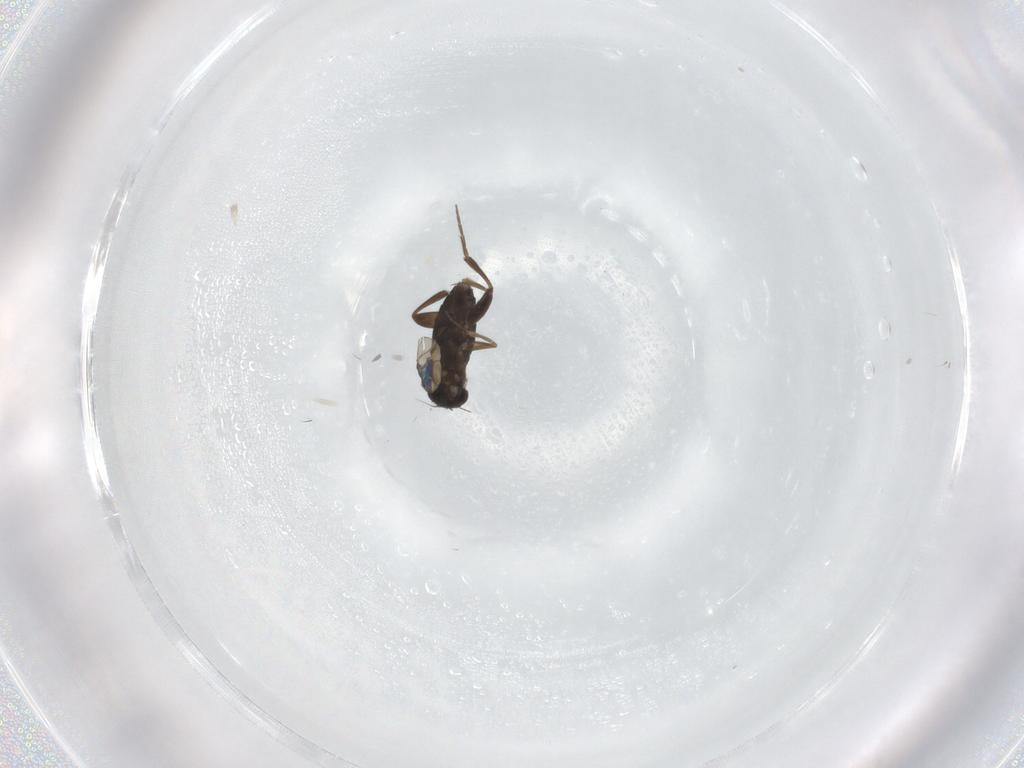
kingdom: Animalia
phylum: Arthropoda
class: Insecta
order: Diptera
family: Phoridae
